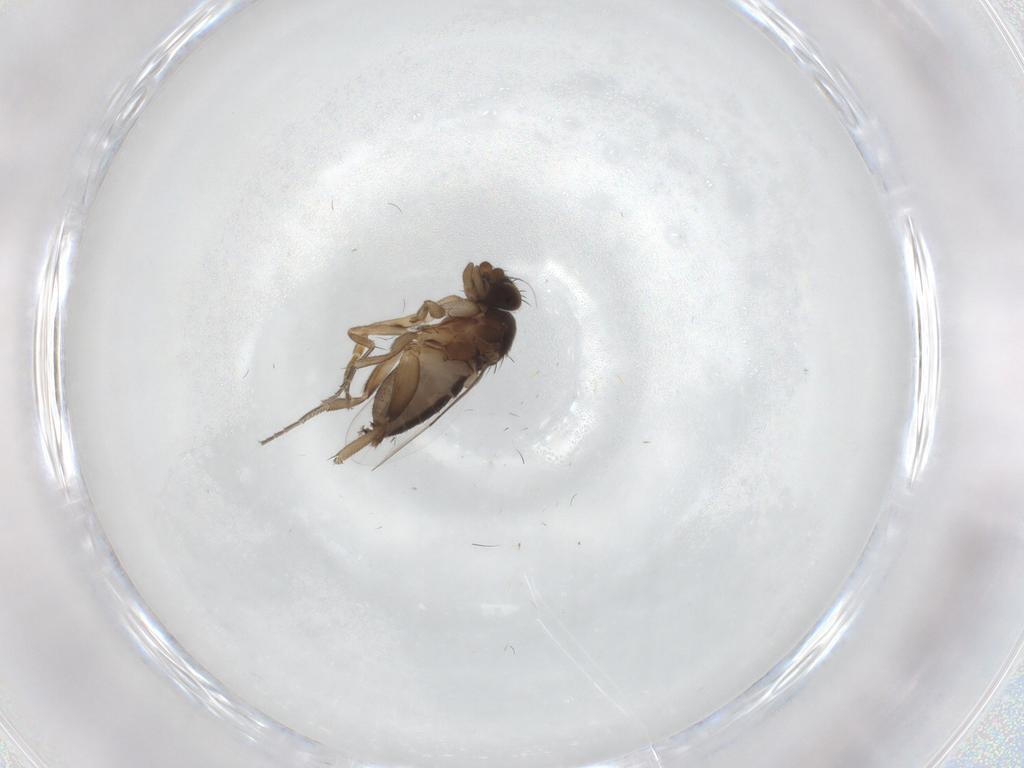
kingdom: Animalia
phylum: Arthropoda
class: Insecta
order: Diptera
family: Phoridae
